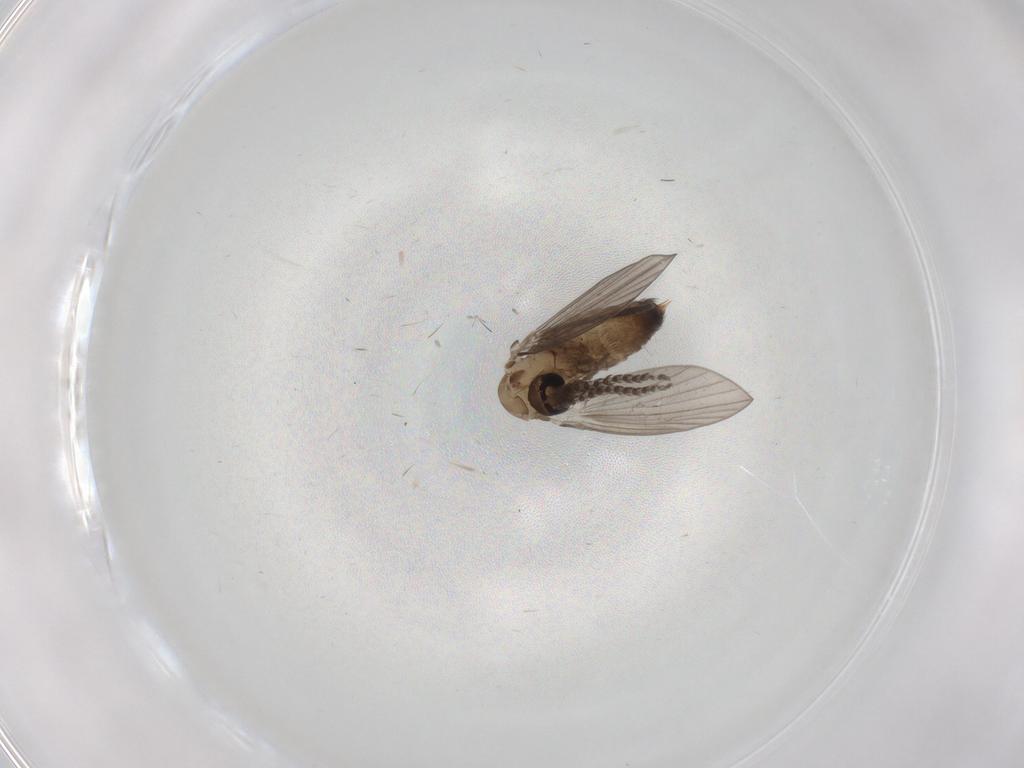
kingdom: Animalia
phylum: Arthropoda
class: Insecta
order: Diptera
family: Psychodidae
